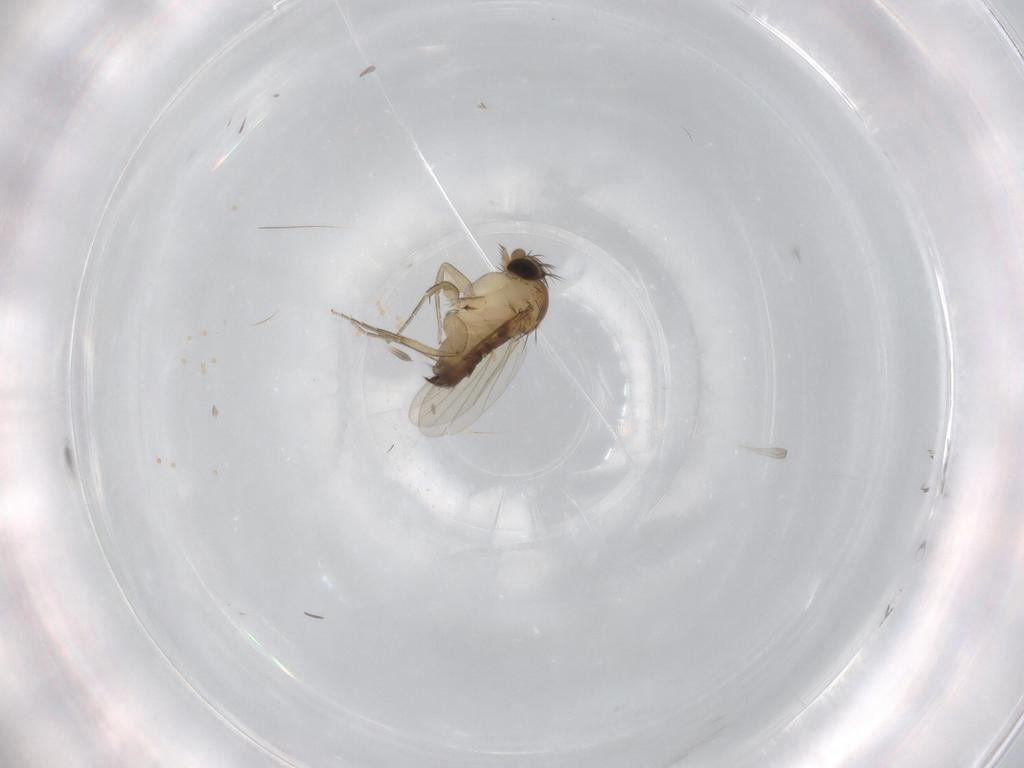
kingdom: Animalia
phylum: Arthropoda
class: Insecta
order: Diptera
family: Phoridae
